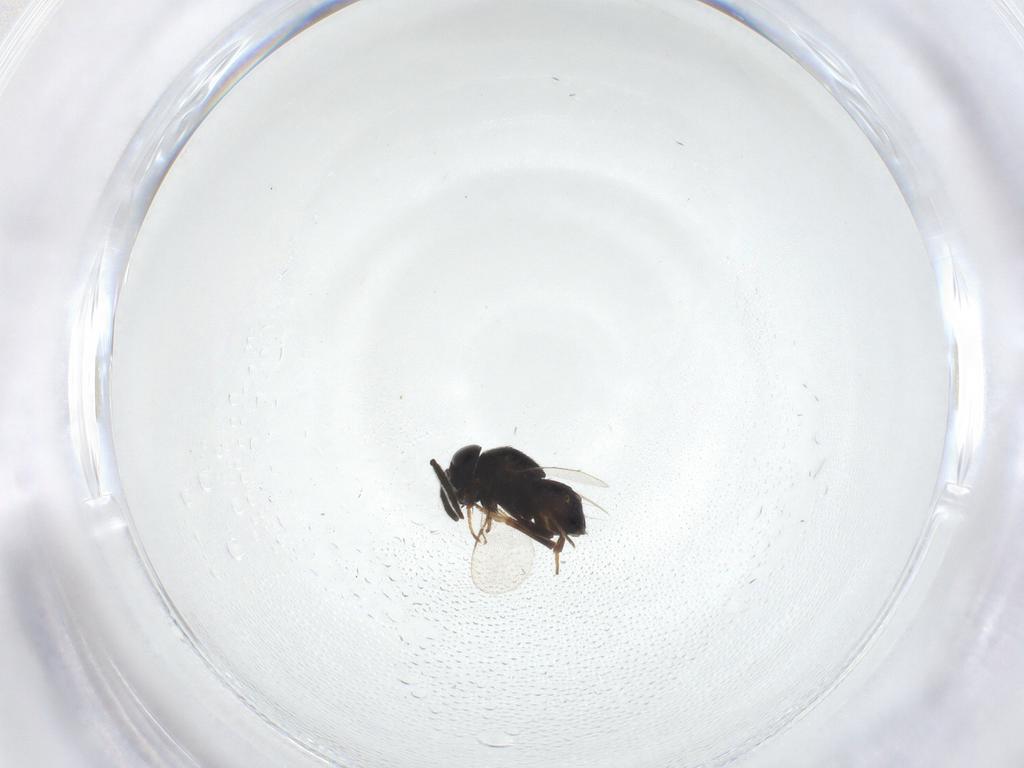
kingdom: Animalia
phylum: Arthropoda
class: Insecta
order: Hymenoptera
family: Encyrtidae
